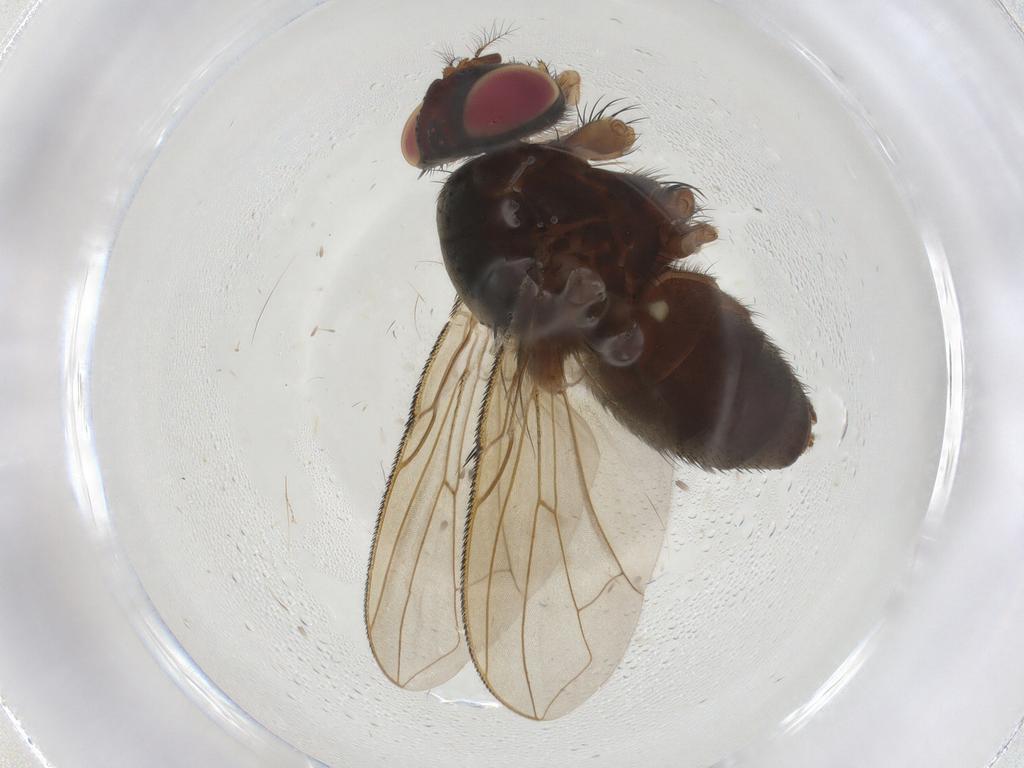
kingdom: Animalia
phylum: Arthropoda
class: Insecta
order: Diptera
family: Calliphoridae
